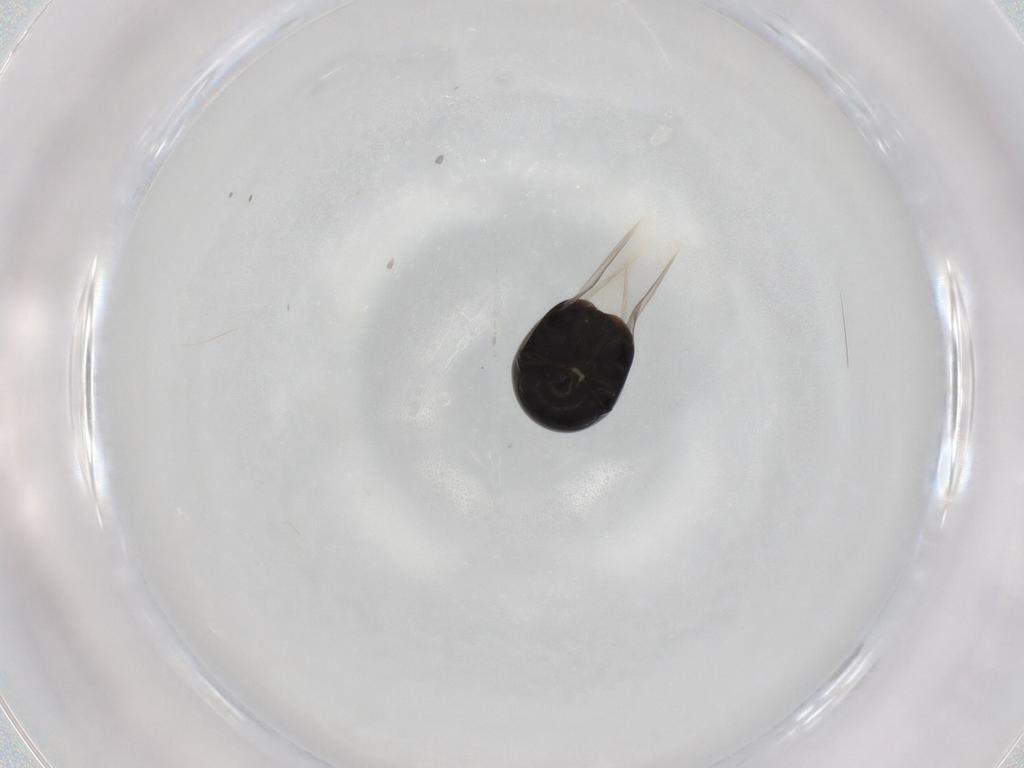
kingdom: Animalia
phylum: Arthropoda
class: Insecta
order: Coleoptera
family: Cybocephalidae
